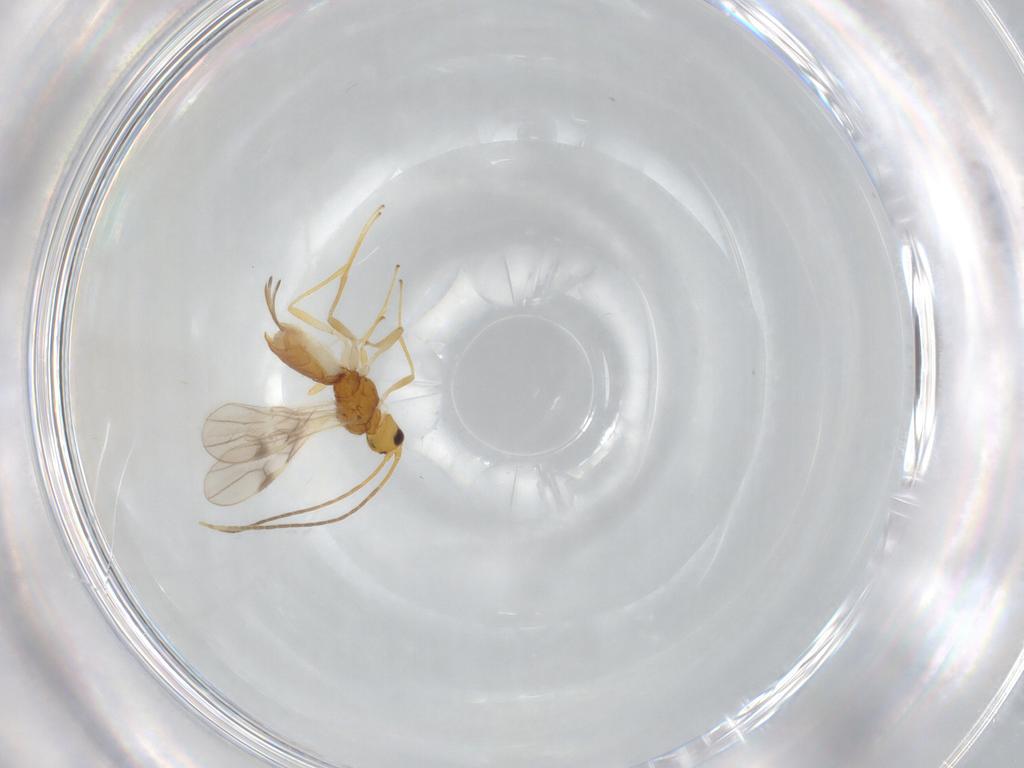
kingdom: Animalia
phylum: Arthropoda
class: Insecta
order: Hymenoptera
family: Braconidae
